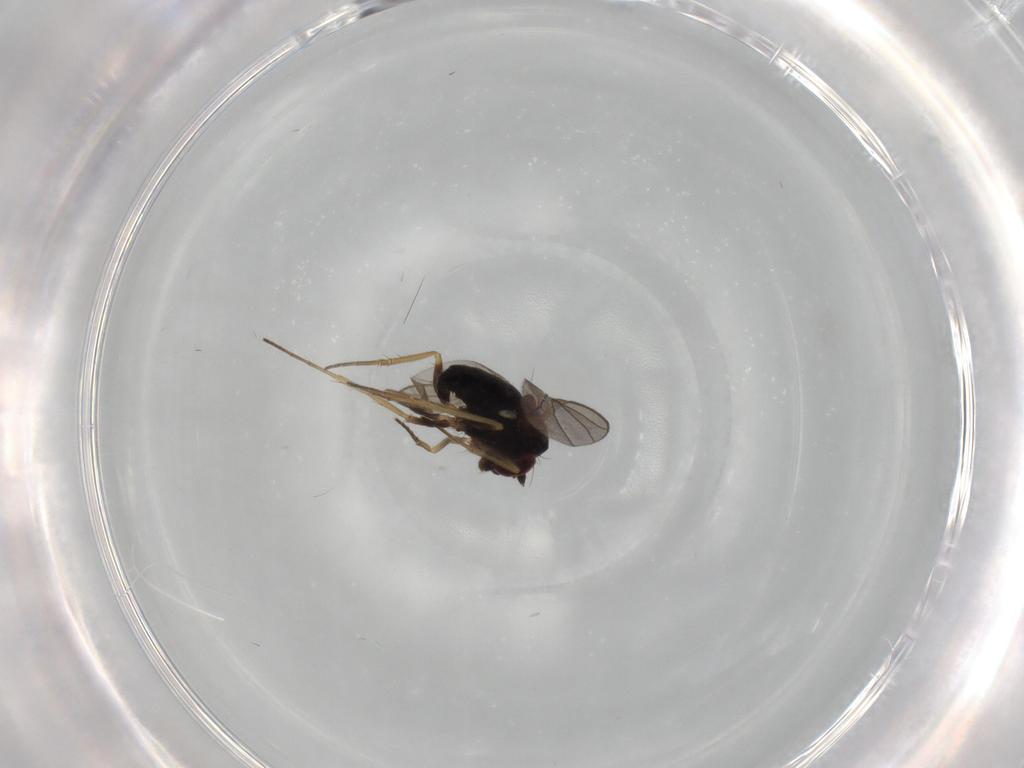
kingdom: Animalia
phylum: Arthropoda
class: Insecta
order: Diptera
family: Dolichopodidae
